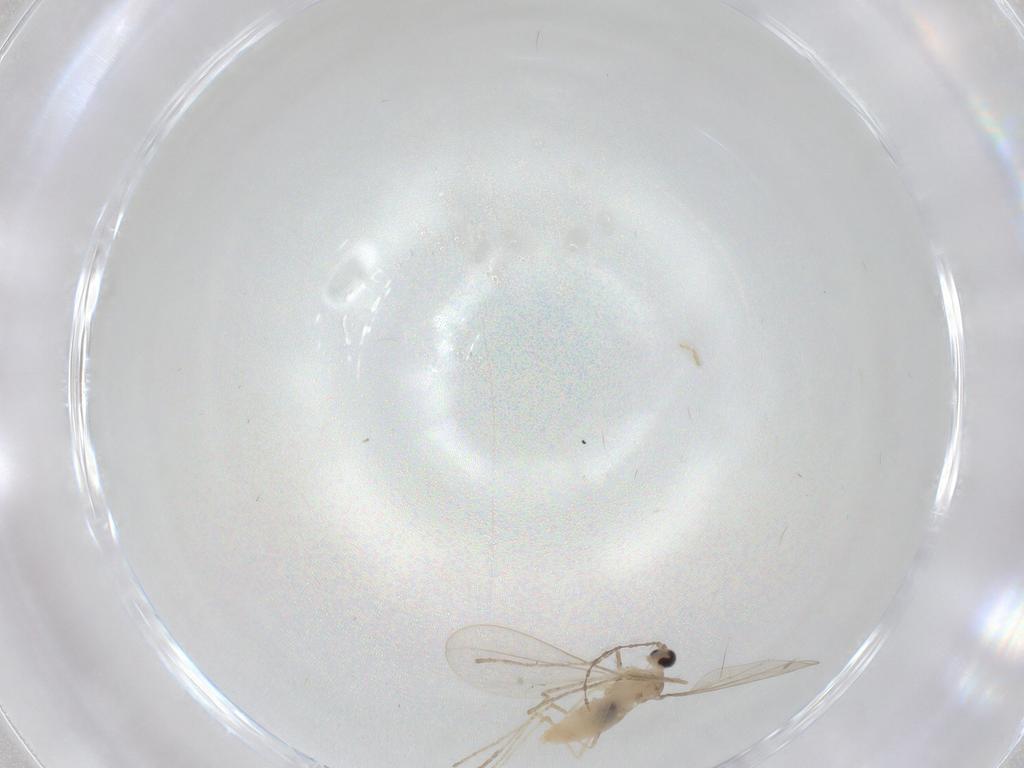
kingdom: Animalia
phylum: Arthropoda
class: Insecta
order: Diptera
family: Cecidomyiidae
